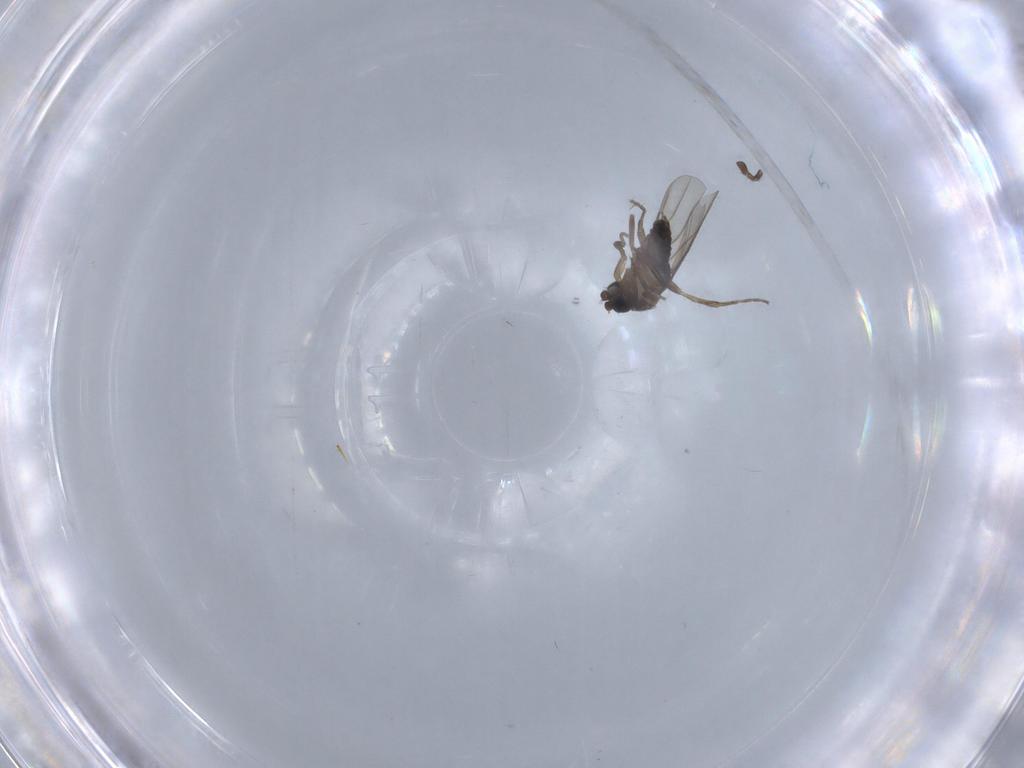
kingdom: Animalia
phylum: Arthropoda
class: Insecta
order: Diptera
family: Phoridae
